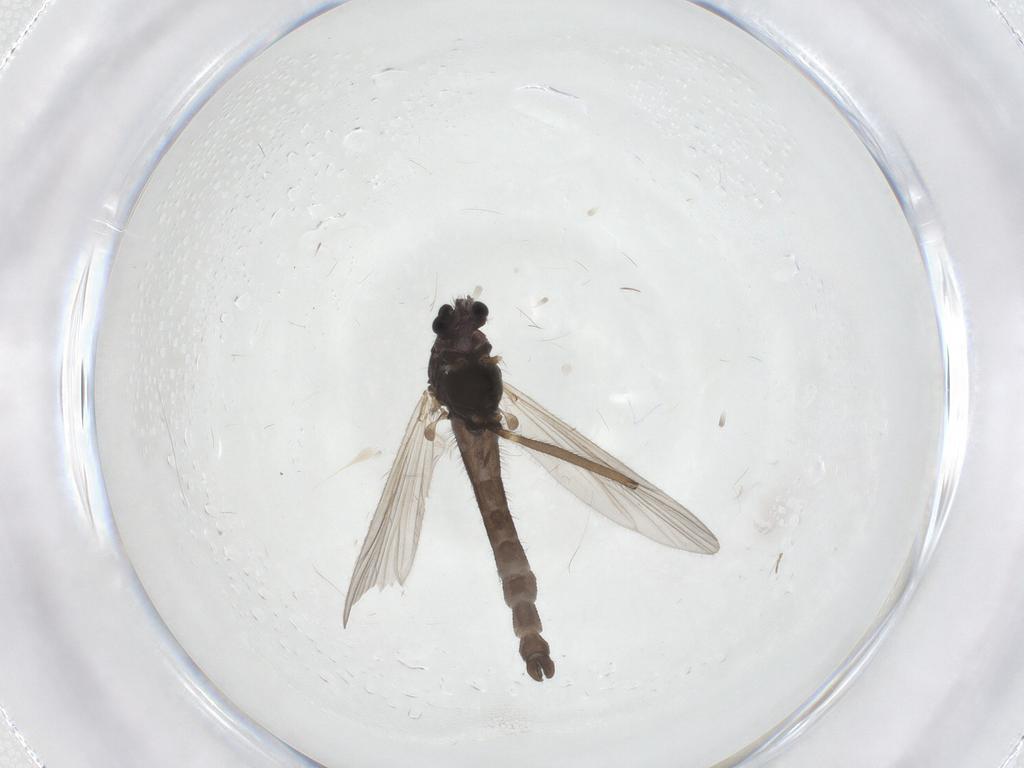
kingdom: Animalia
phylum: Arthropoda
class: Insecta
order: Diptera
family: Chironomidae
